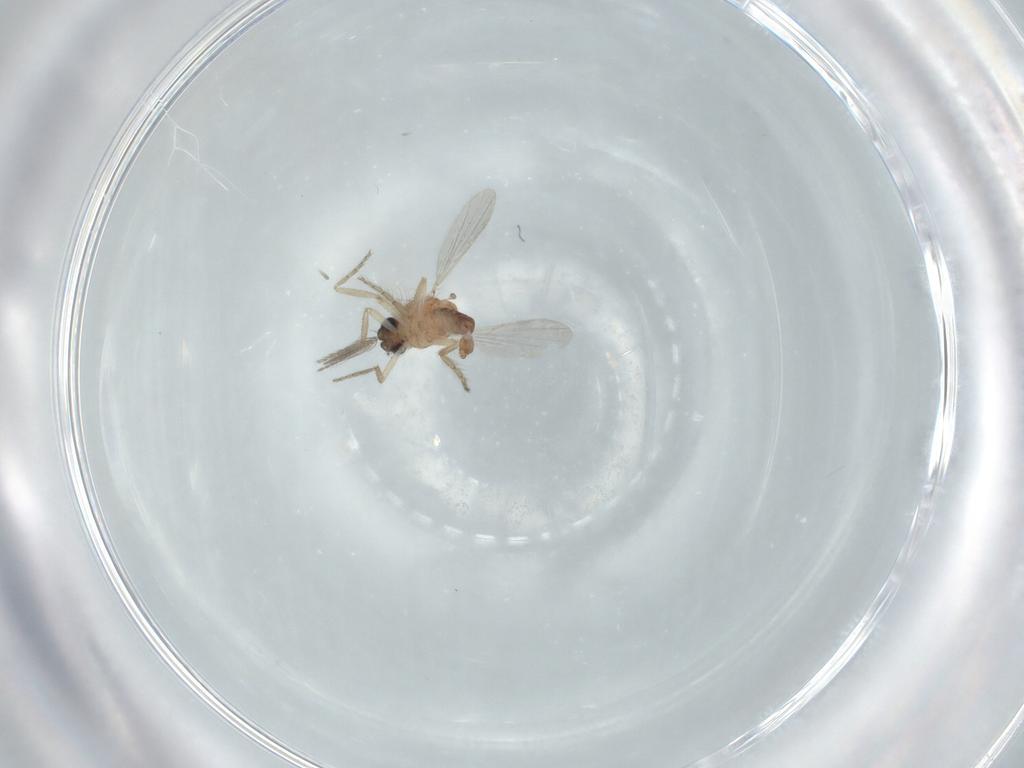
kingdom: Animalia
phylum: Arthropoda
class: Insecta
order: Diptera
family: Ceratopogonidae
